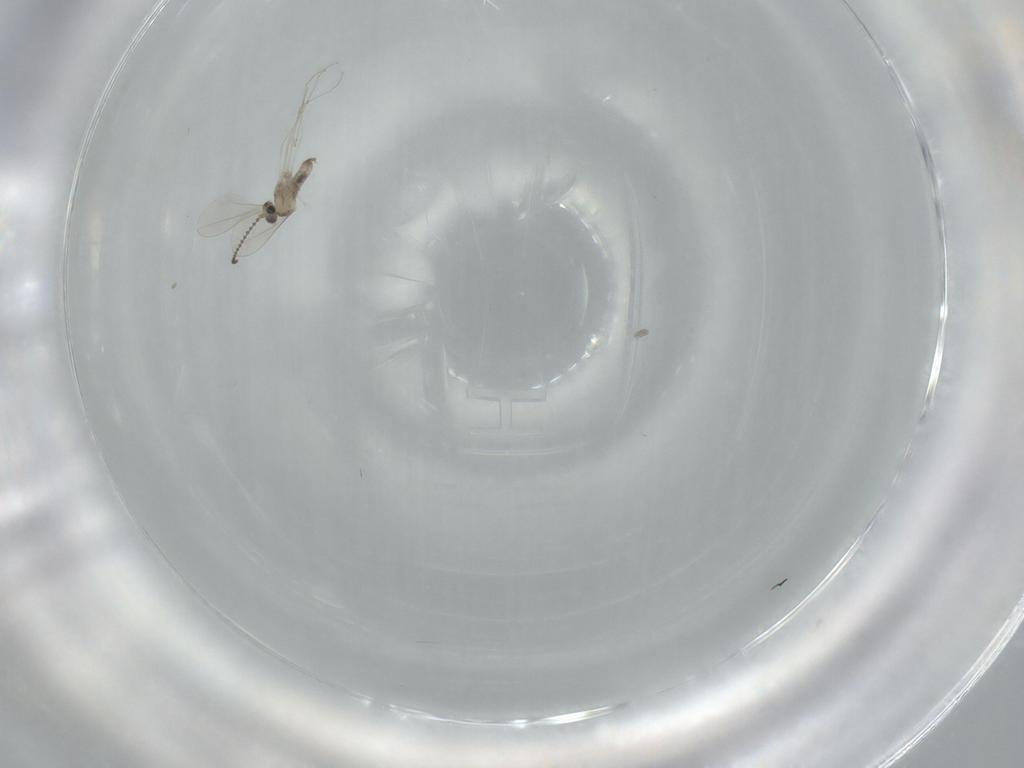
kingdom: Animalia
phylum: Arthropoda
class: Insecta
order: Diptera
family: Cecidomyiidae
